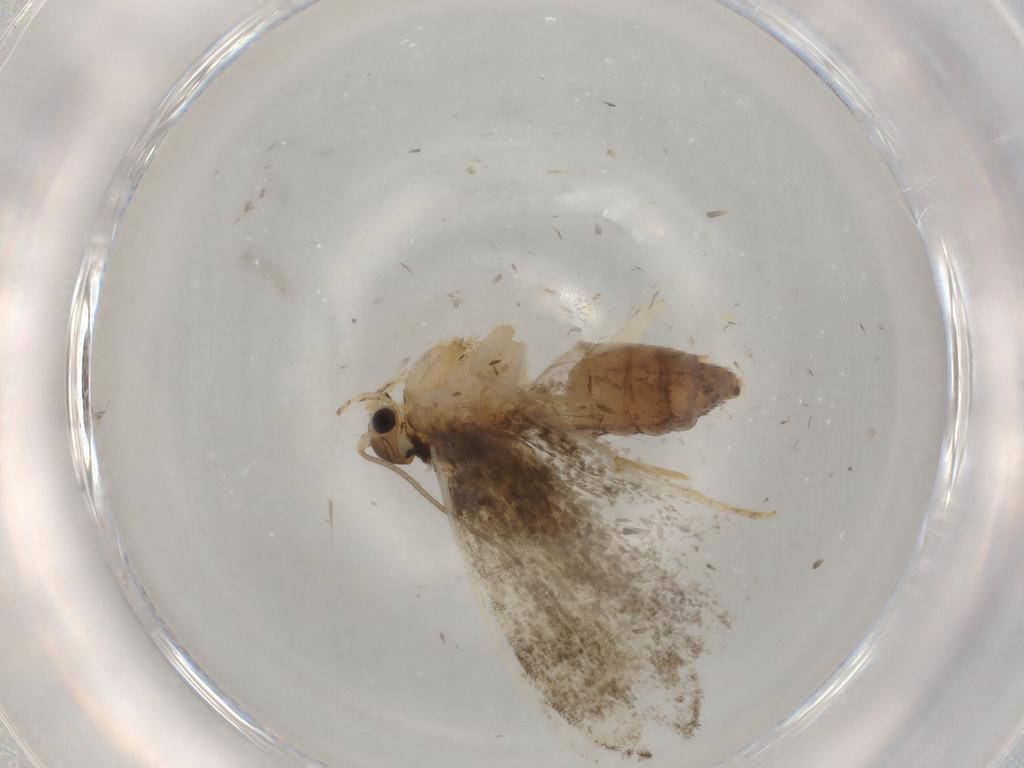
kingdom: Animalia
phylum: Arthropoda
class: Insecta
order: Lepidoptera
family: Tineidae
